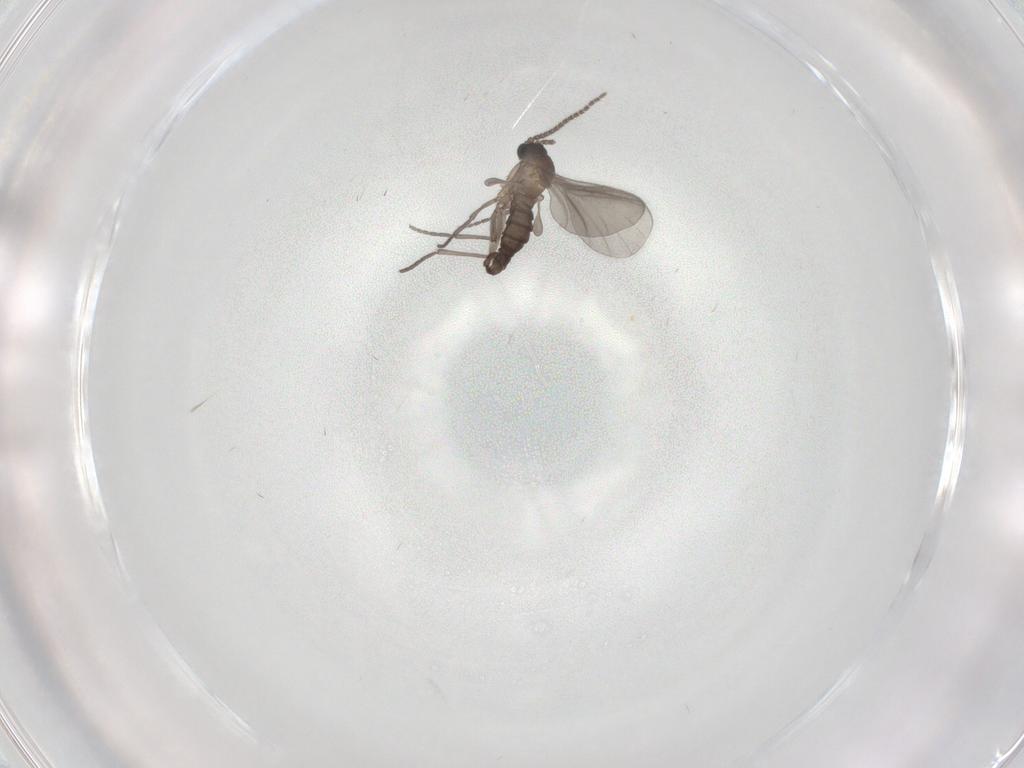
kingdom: Animalia
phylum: Arthropoda
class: Insecta
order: Diptera
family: Sciaridae
